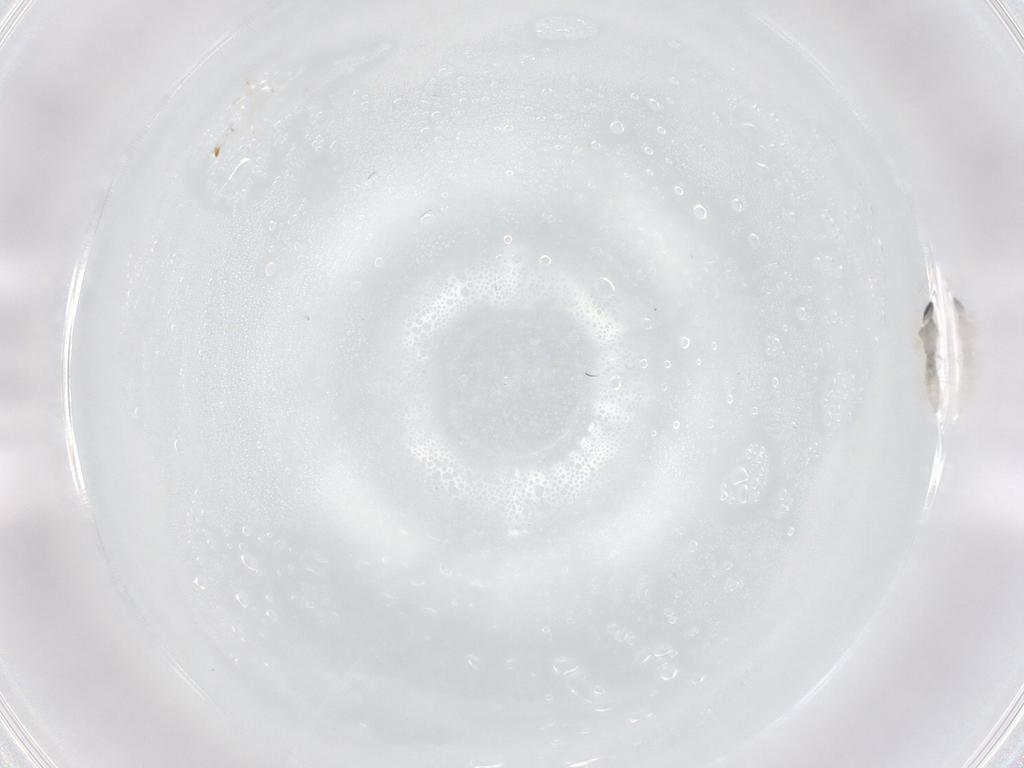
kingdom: Animalia
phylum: Arthropoda
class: Insecta
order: Diptera
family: Cecidomyiidae
